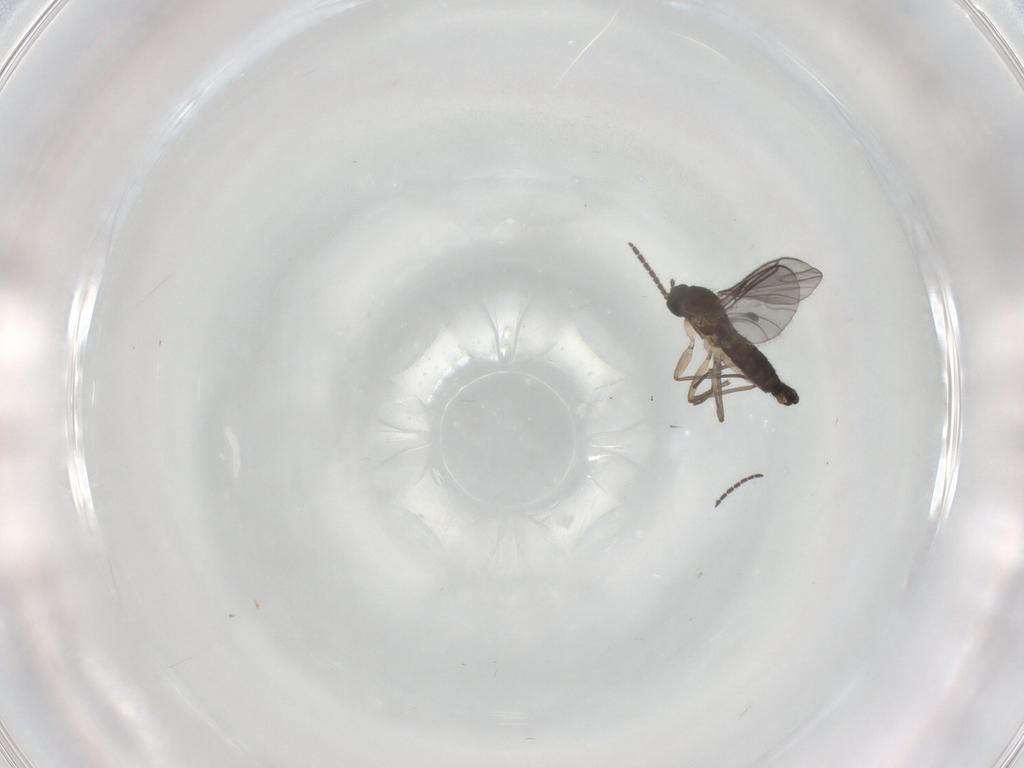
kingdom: Animalia
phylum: Arthropoda
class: Insecta
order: Diptera
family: Sciaridae
